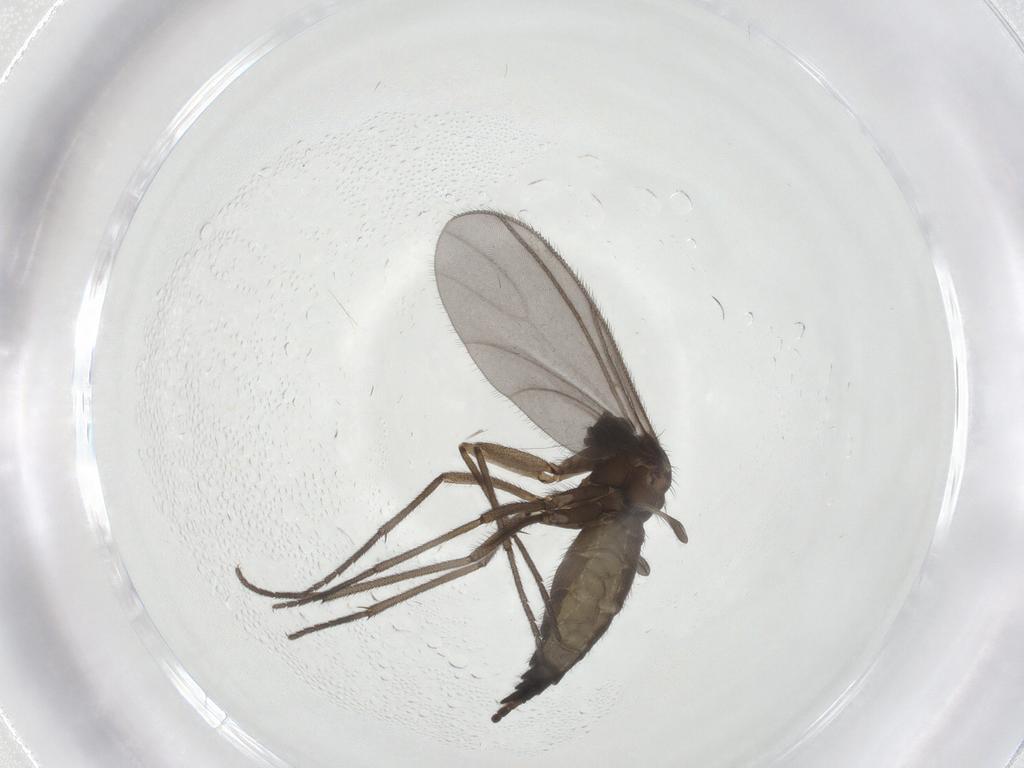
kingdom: Animalia
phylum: Arthropoda
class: Insecta
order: Diptera
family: Sciaridae
